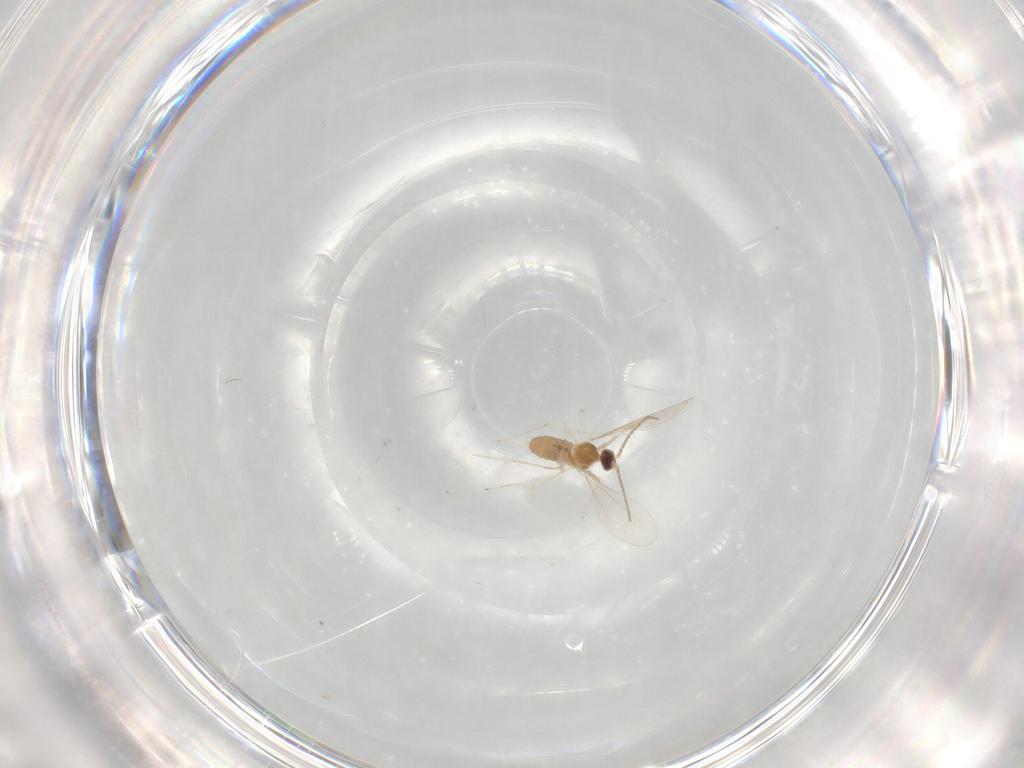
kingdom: Animalia
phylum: Arthropoda
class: Insecta
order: Diptera
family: Cecidomyiidae
